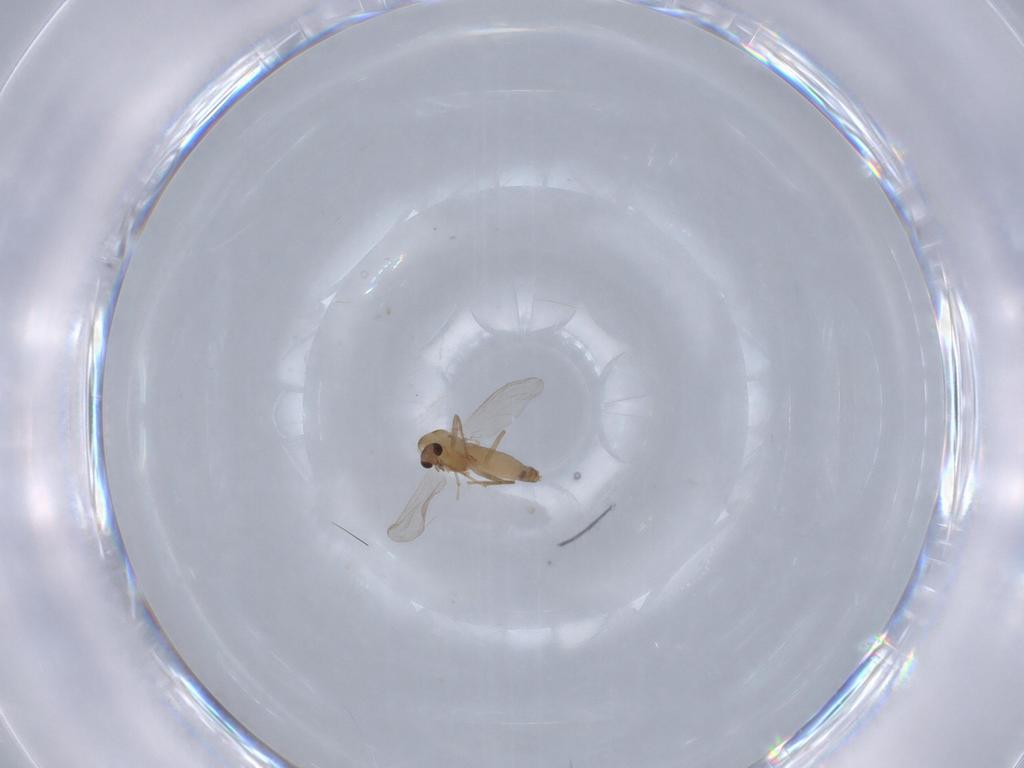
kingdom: Animalia
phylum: Arthropoda
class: Insecta
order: Diptera
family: Chironomidae
